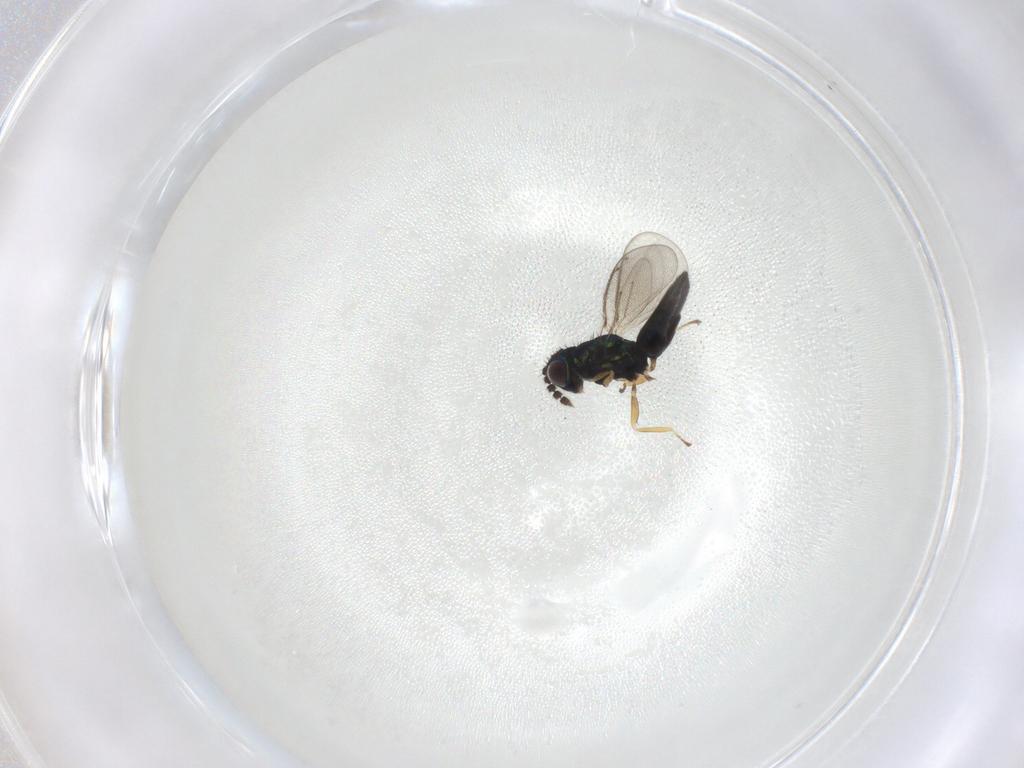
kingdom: Animalia
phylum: Arthropoda
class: Insecta
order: Hymenoptera
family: Eulophidae
